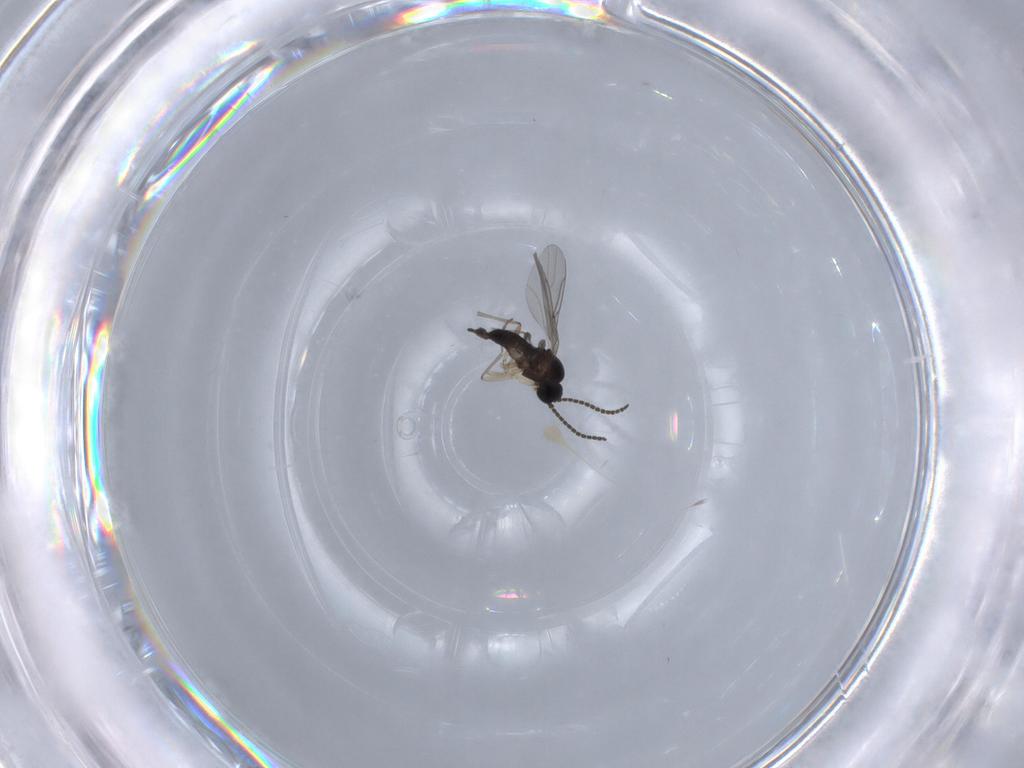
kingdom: Animalia
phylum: Arthropoda
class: Insecta
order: Diptera
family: Sciaridae
